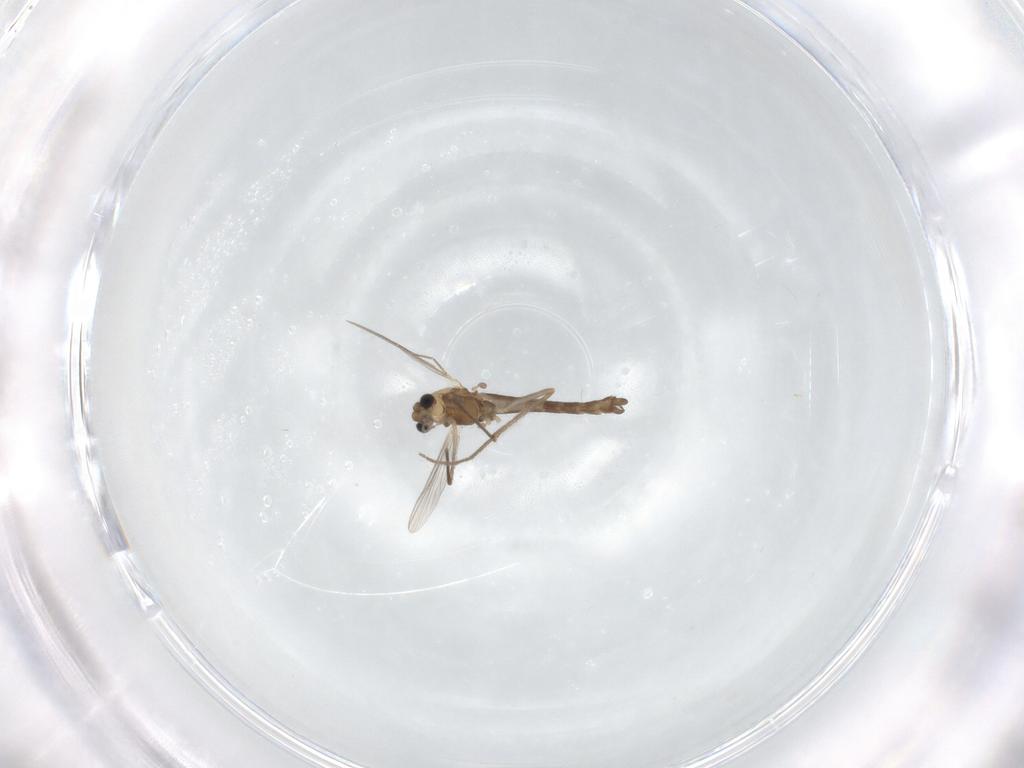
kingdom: Animalia
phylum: Arthropoda
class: Insecta
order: Diptera
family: Chironomidae
